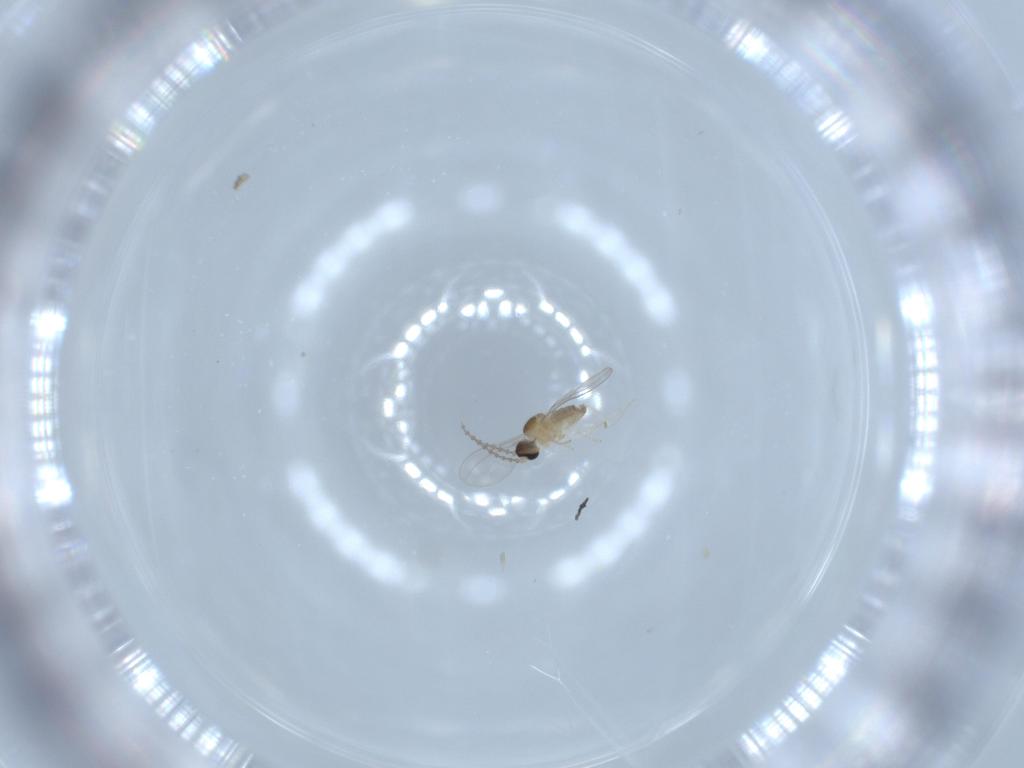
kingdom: Animalia
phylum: Arthropoda
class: Insecta
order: Diptera
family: Cecidomyiidae
